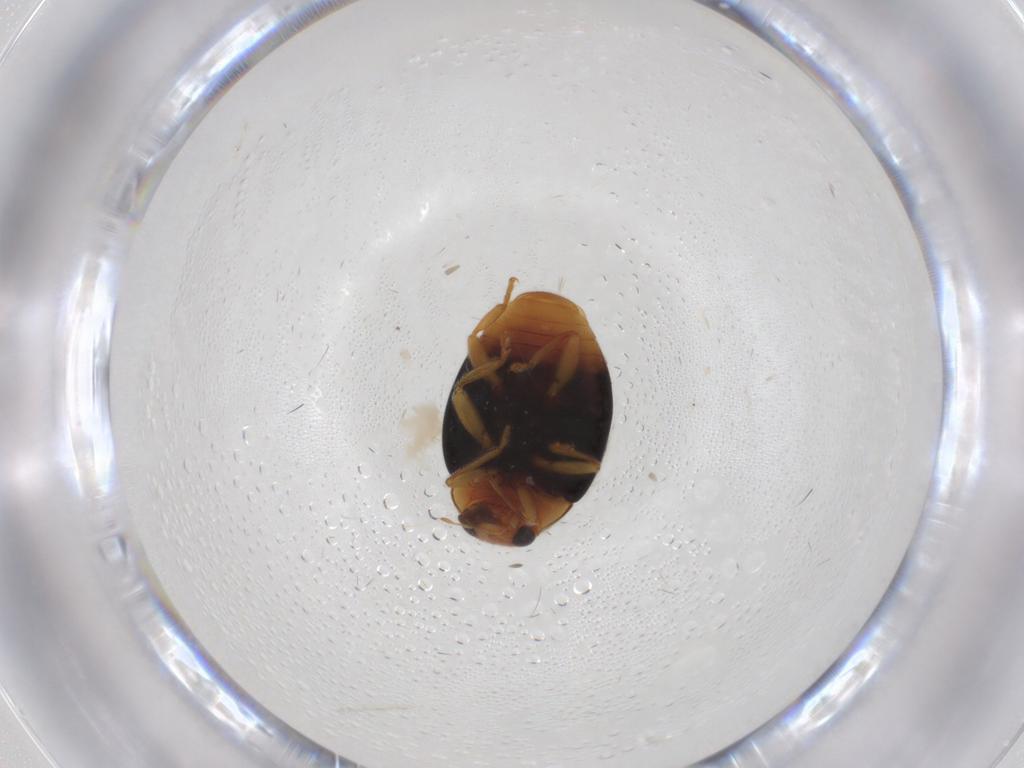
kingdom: Animalia
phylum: Arthropoda
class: Insecta
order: Coleoptera
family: Coccinellidae
